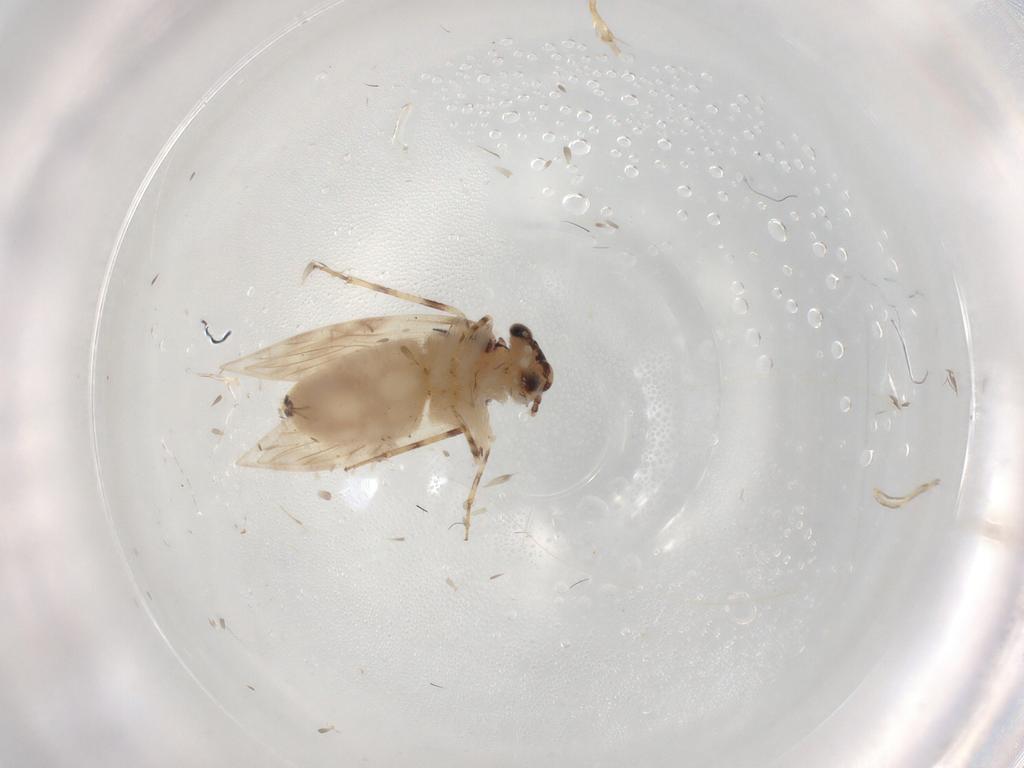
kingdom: Animalia
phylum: Arthropoda
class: Insecta
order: Psocodea
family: Lepidopsocidae
